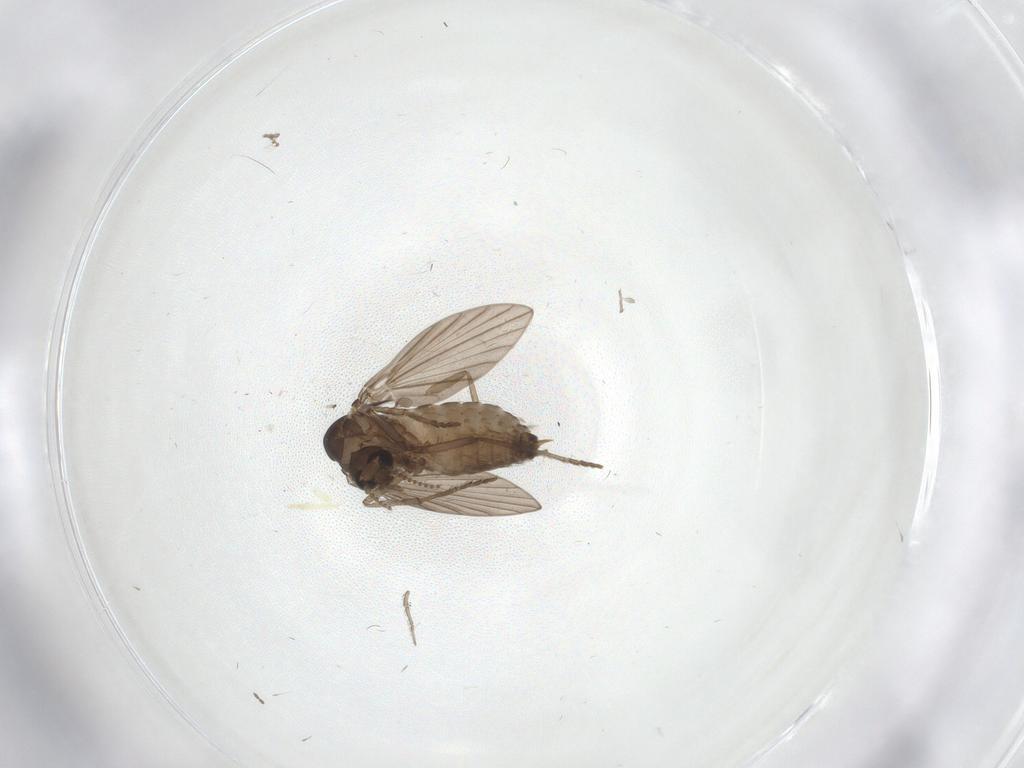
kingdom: Animalia
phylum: Arthropoda
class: Insecta
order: Diptera
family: Psychodidae
